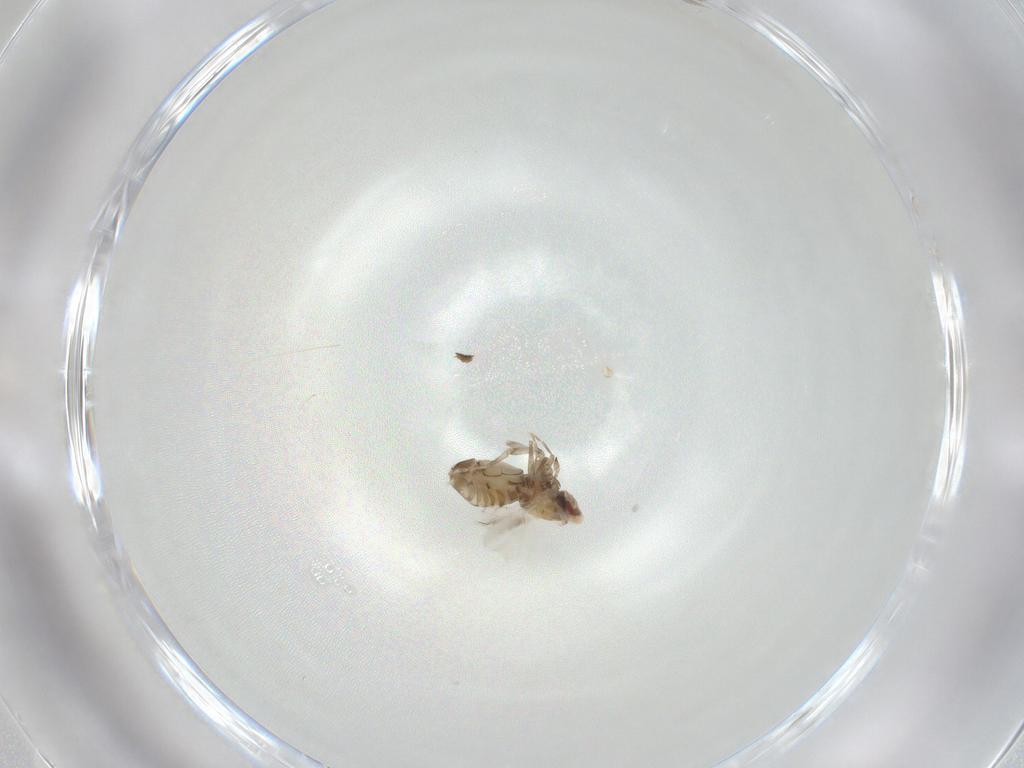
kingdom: Animalia
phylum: Arthropoda
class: Insecta
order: Hemiptera
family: Aleyrodidae
